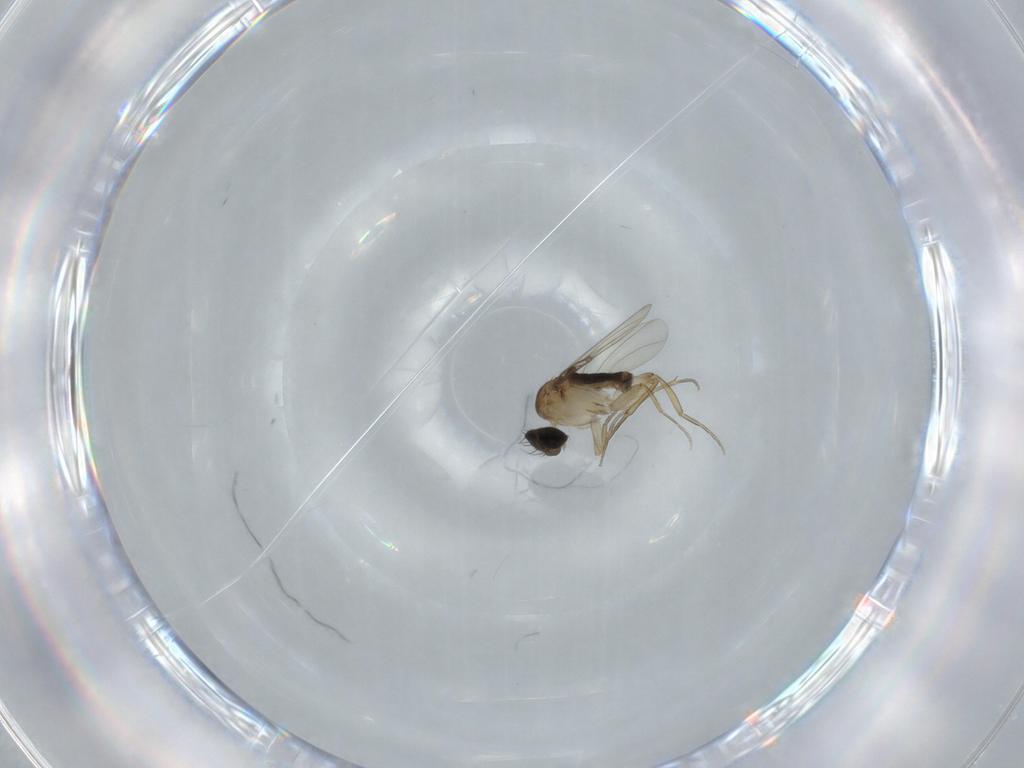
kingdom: Animalia
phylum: Arthropoda
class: Insecta
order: Diptera
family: Phoridae
